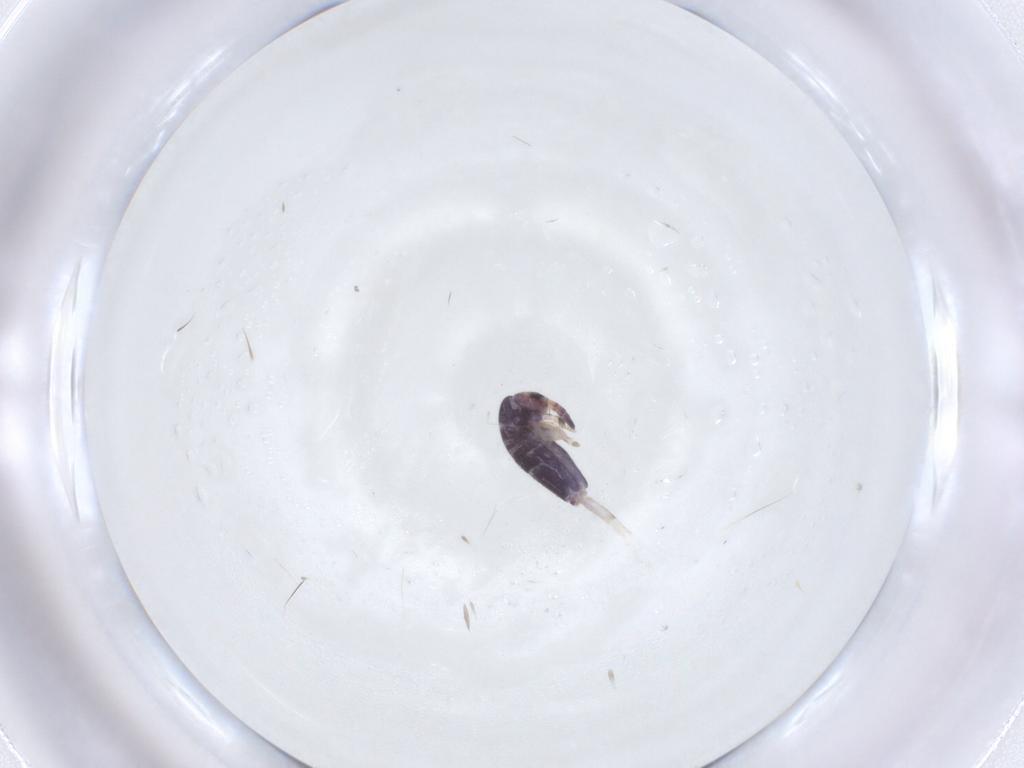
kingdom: Animalia
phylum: Arthropoda
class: Collembola
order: Entomobryomorpha
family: Entomobryidae
